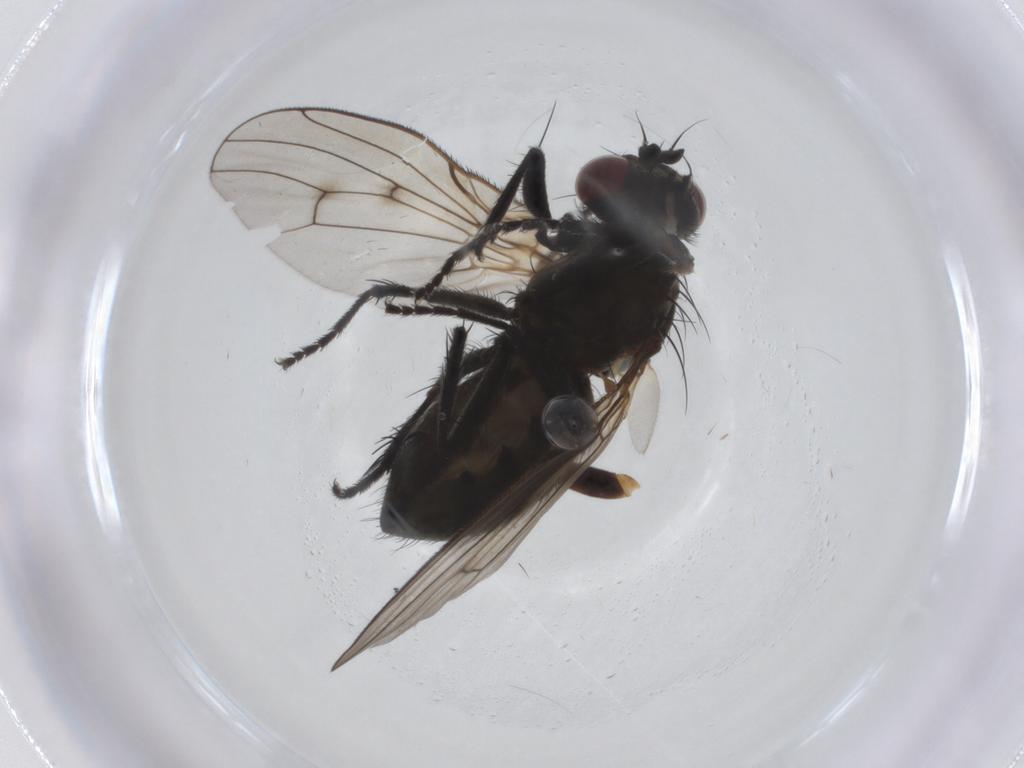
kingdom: Animalia
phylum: Arthropoda
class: Insecta
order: Diptera
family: Muscidae
